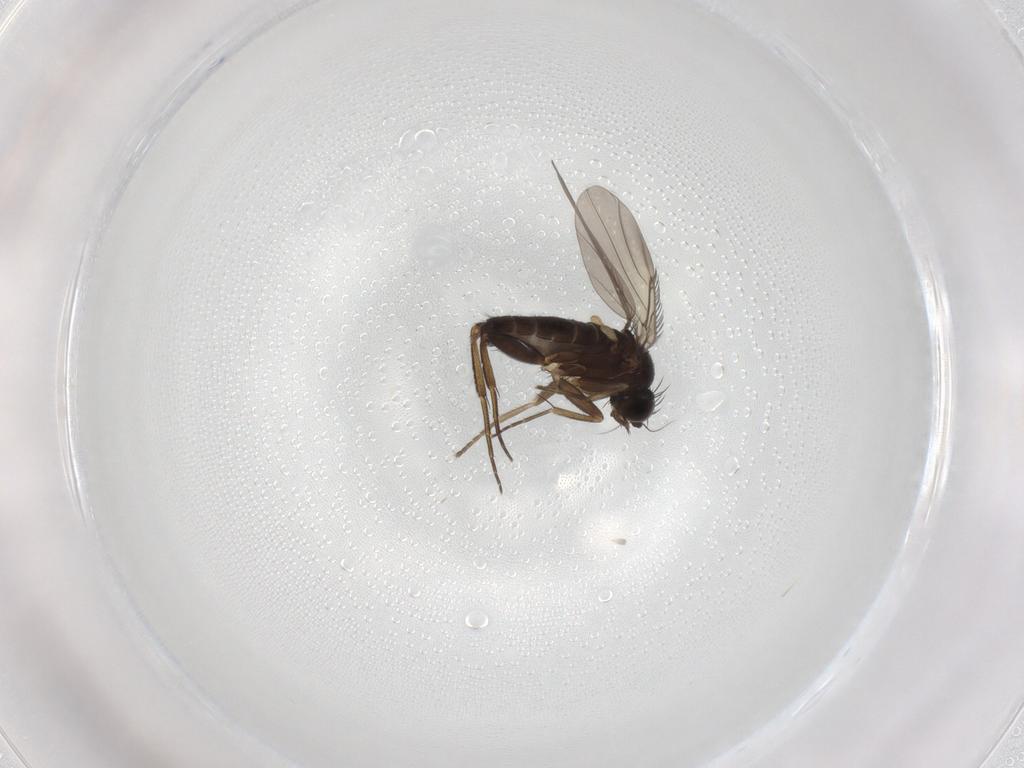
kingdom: Animalia
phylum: Arthropoda
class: Insecta
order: Diptera
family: Phoridae
